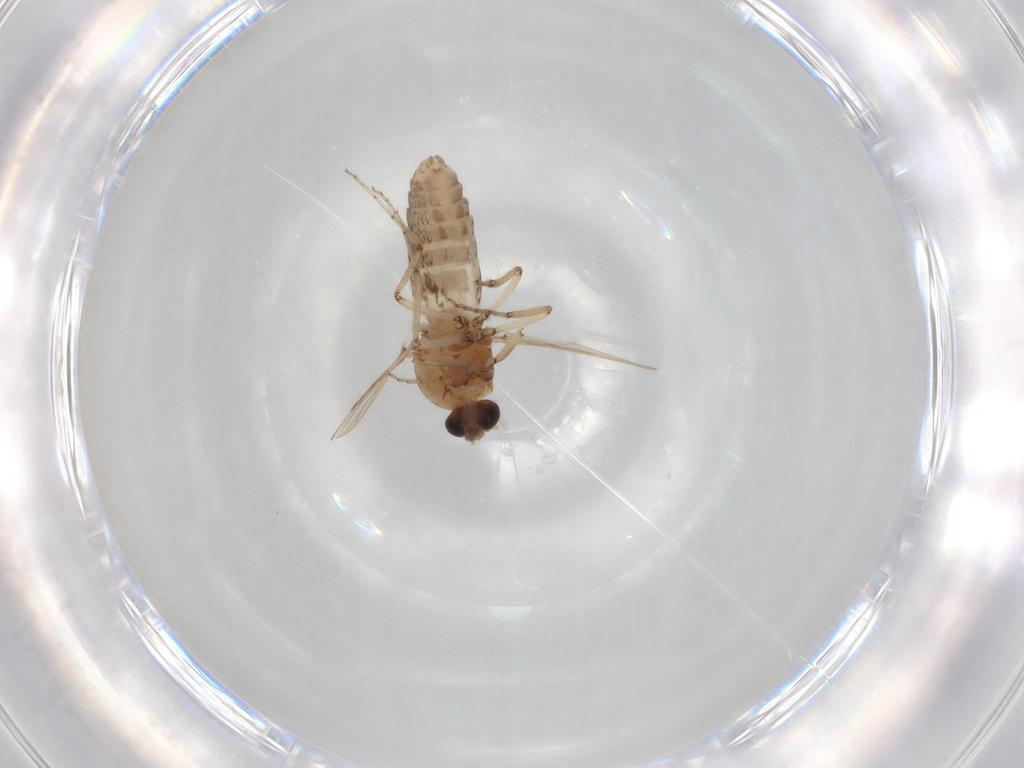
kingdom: Animalia
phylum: Arthropoda
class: Insecta
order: Diptera
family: Ceratopogonidae
